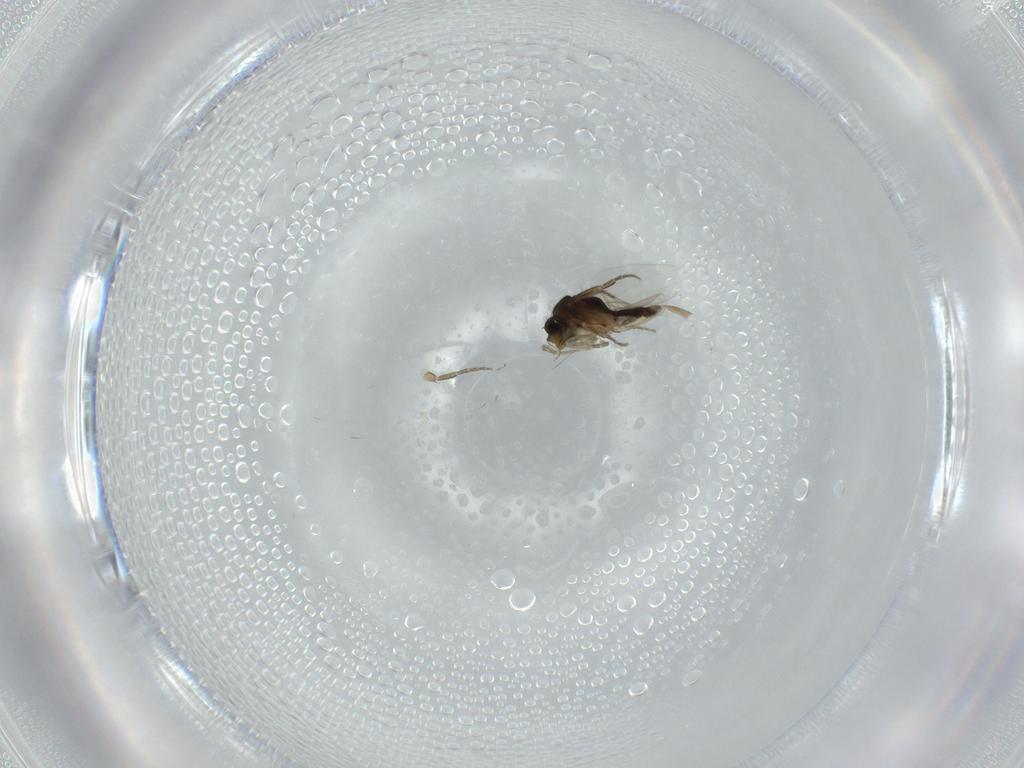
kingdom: Animalia
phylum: Arthropoda
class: Insecta
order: Diptera
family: Phoridae
